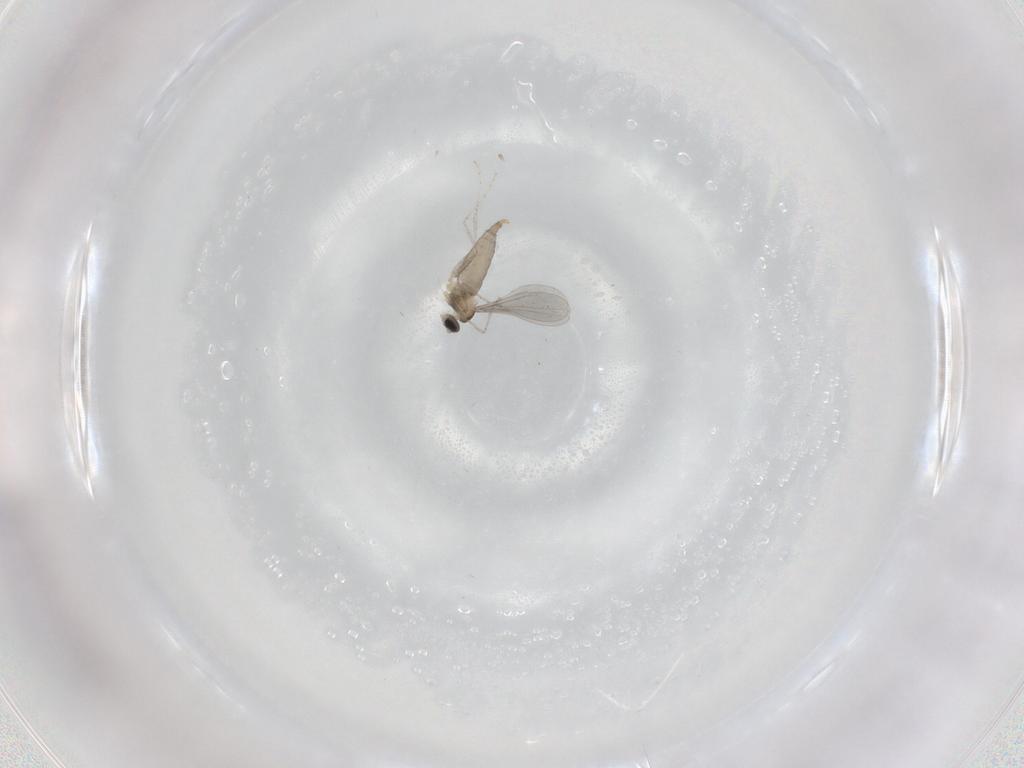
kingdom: Animalia
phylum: Arthropoda
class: Insecta
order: Diptera
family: Cecidomyiidae
